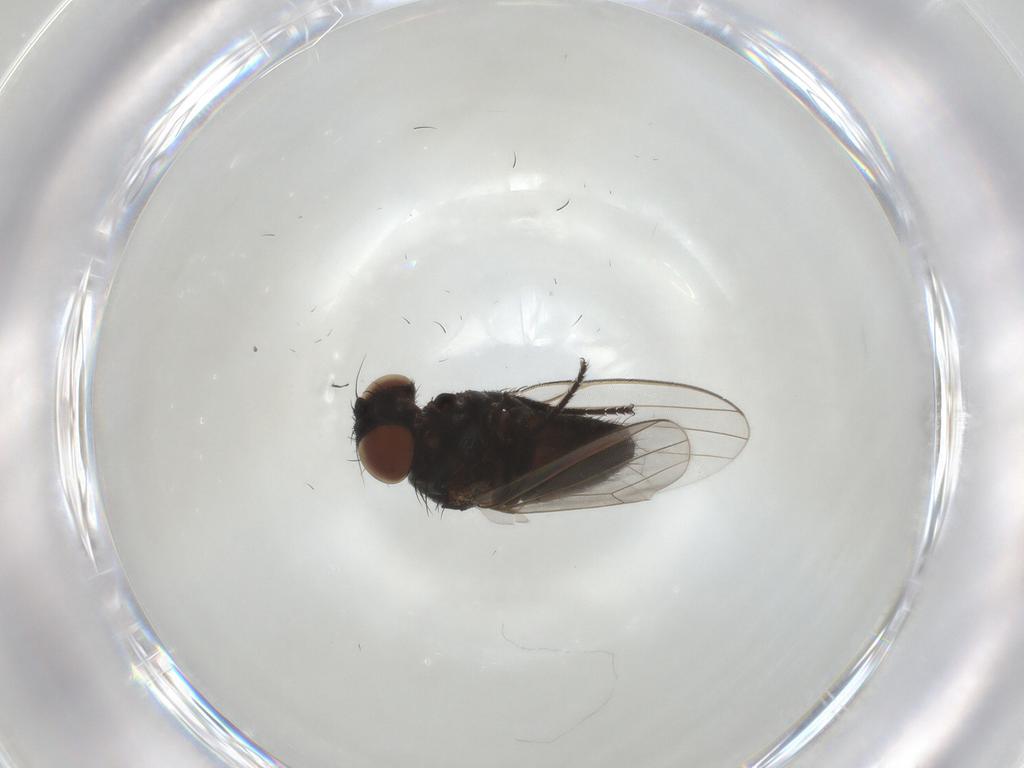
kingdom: Animalia
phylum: Arthropoda
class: Insecta
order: Diptera
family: Milichiidae
